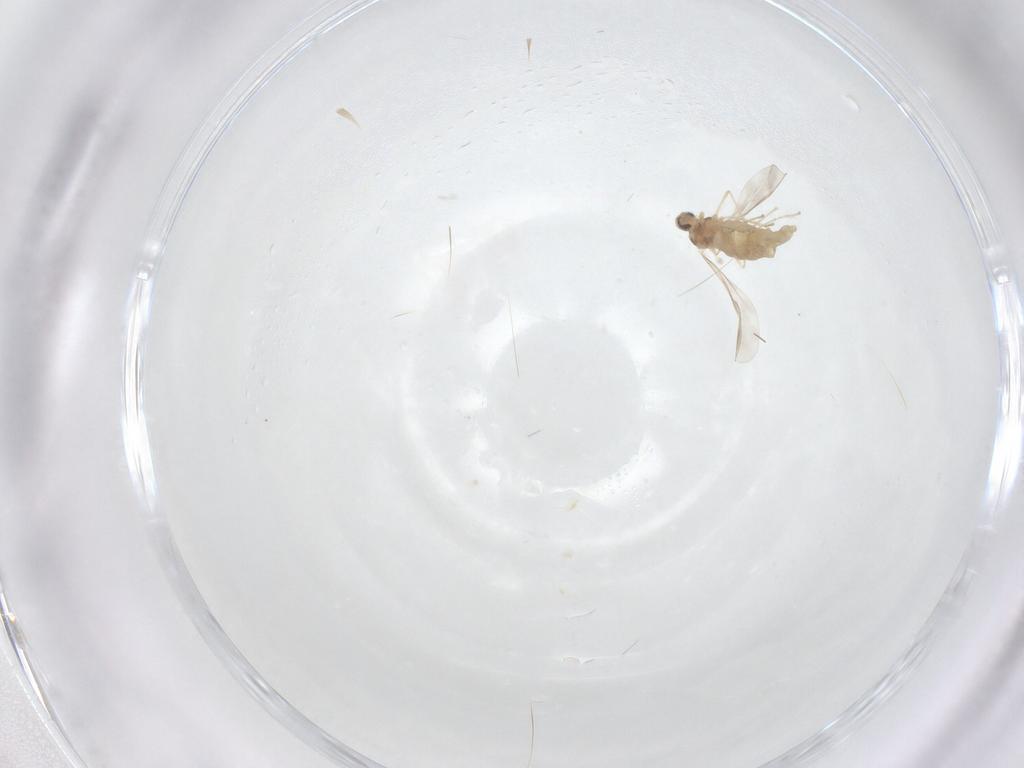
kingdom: Animalia
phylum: Arthropoda
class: Insecta
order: Diptera
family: Cecidomyiidae
